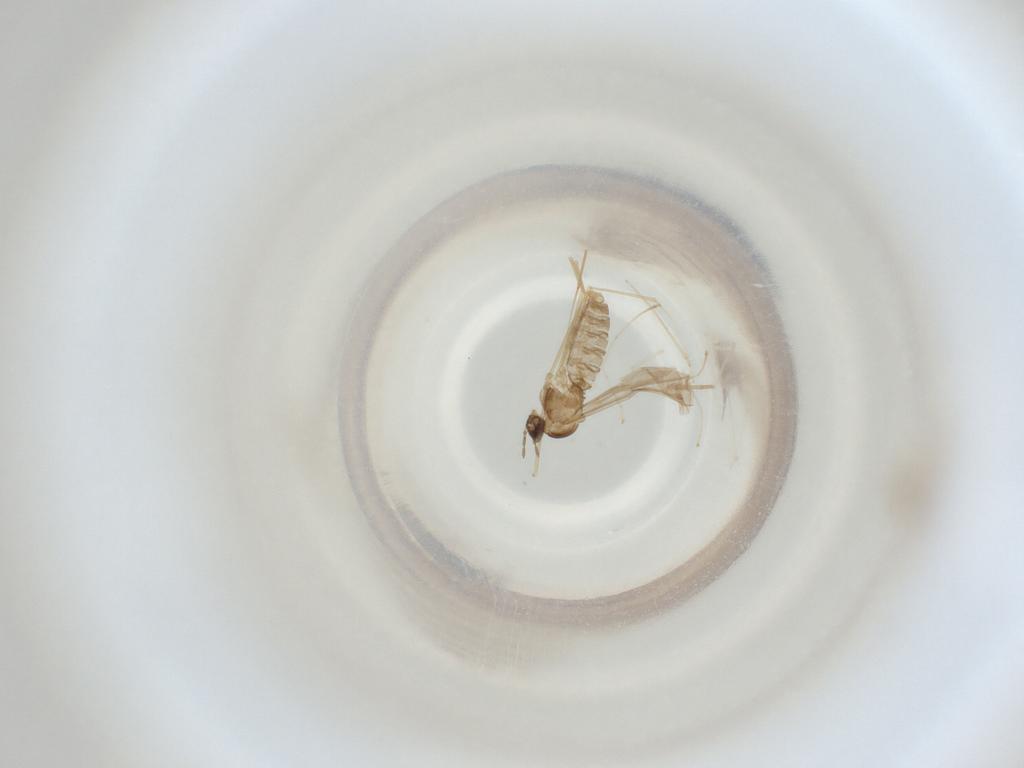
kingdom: Animalia
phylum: Arthropoda
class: Insecta
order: Diptera
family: Cecidomyiidae
